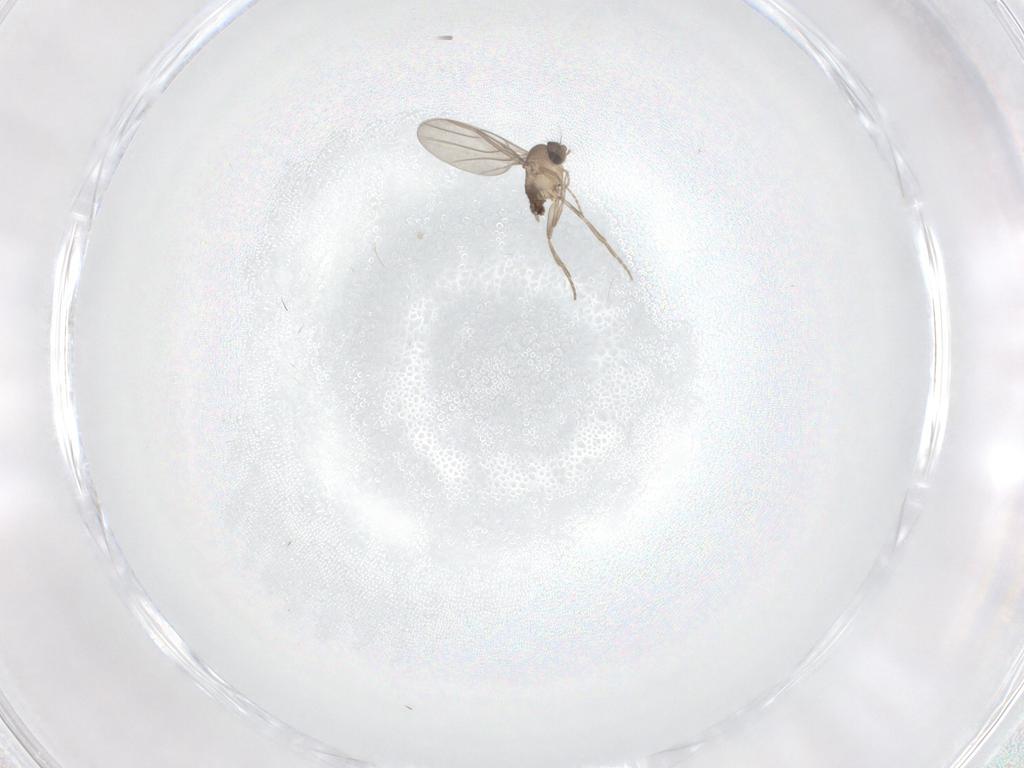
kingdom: Animalia
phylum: Arthropoda
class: Insecta
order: Diptera
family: Phoridae
